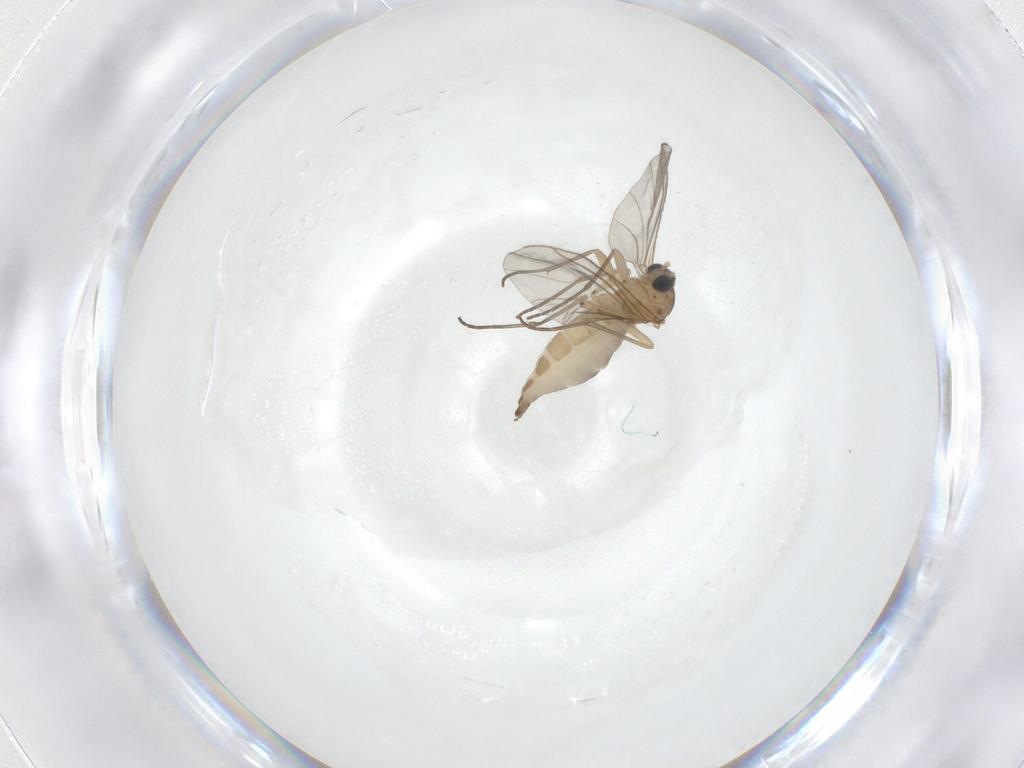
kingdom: Animalia
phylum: Arthropoda
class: Insecta
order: Diptera
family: Sciaridae
